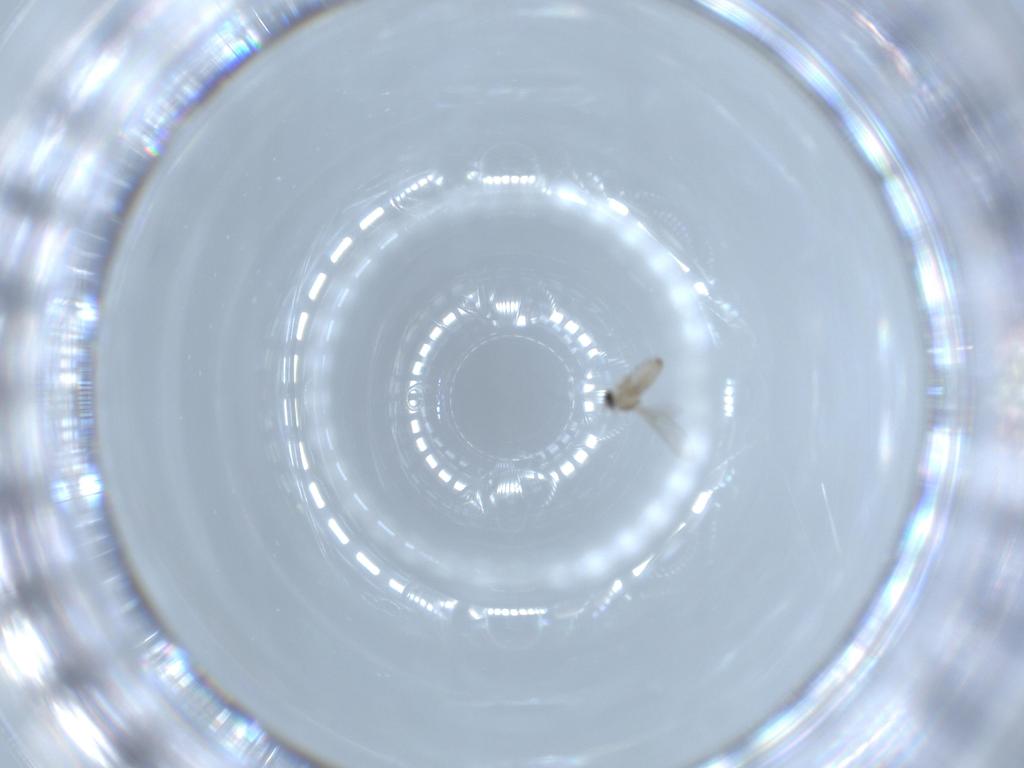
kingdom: Animalia
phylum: Arthropoda
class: Insecta
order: Diptera
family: Cecidomyiidae
